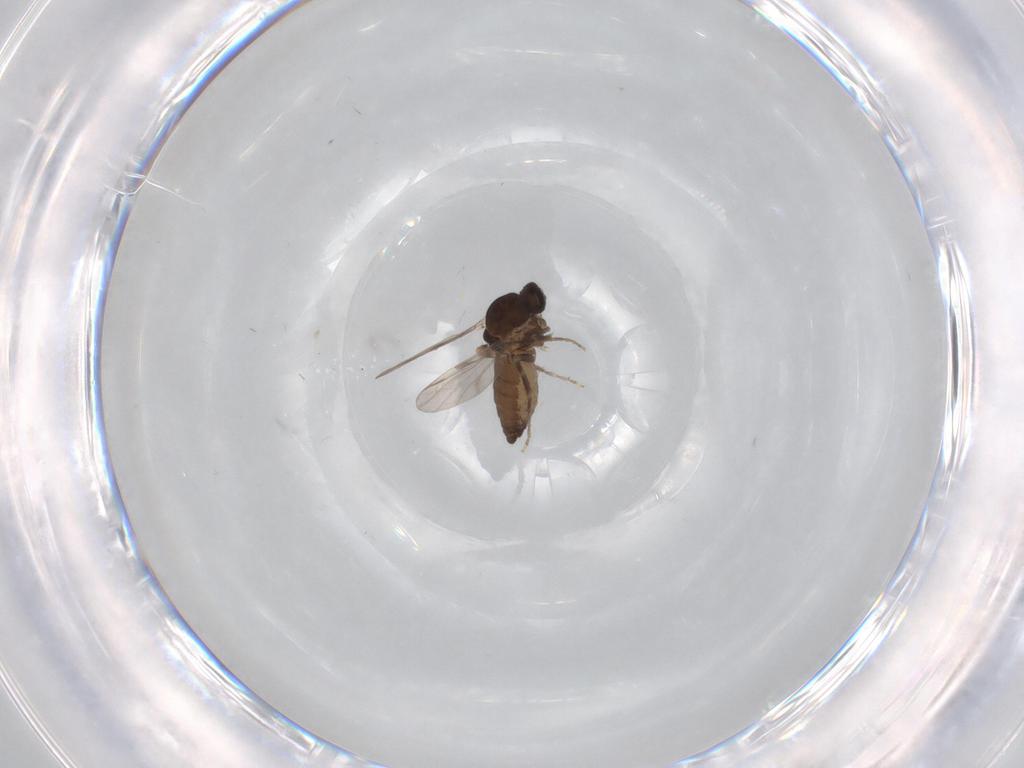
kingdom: Animalia
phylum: Arthropoda
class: Insecta
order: Diptera
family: Ceratopogonidae
